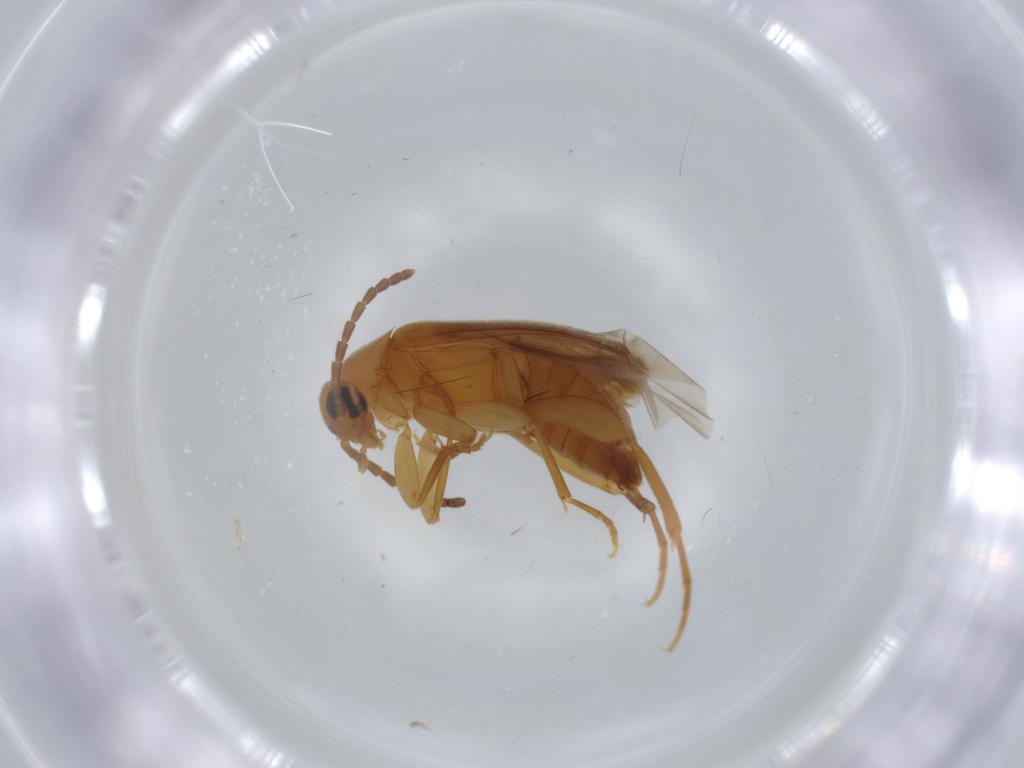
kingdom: Animalia
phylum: Arthropoda
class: Insecta
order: Coleoptera
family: Scraptiidae
